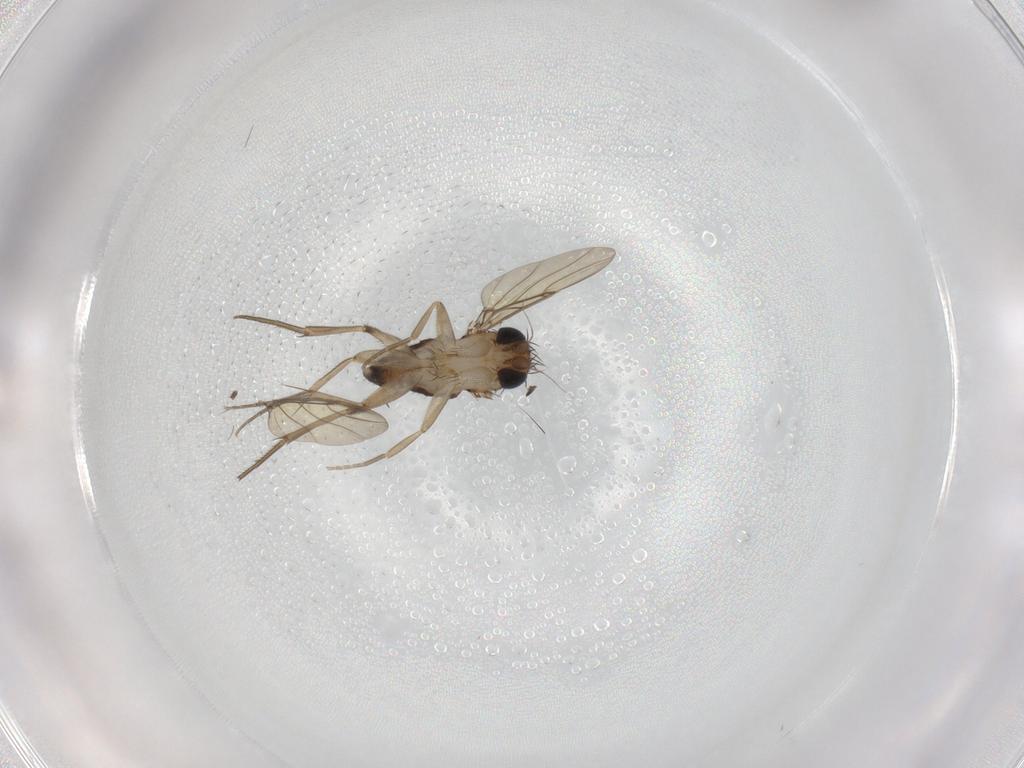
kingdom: Animalia
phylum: Arthropoda
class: Insecta
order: Diptera
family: Phoridae
